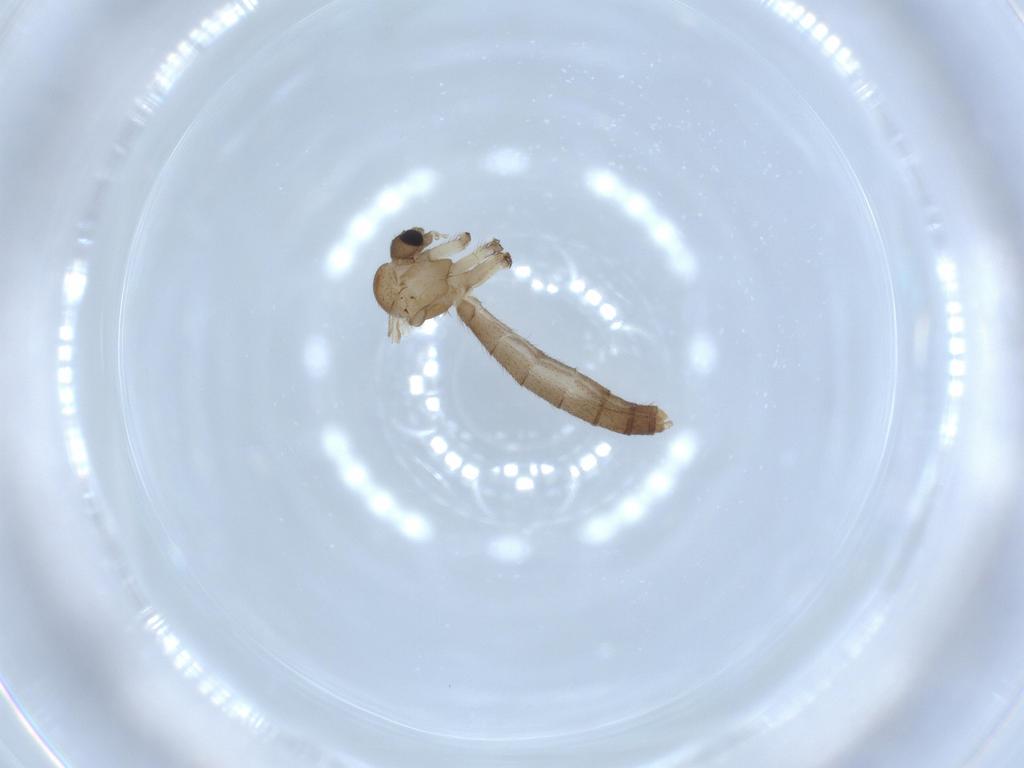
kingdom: Animalia
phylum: Arthropoda
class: Insecta
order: Diptera
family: Mycetophilidae
